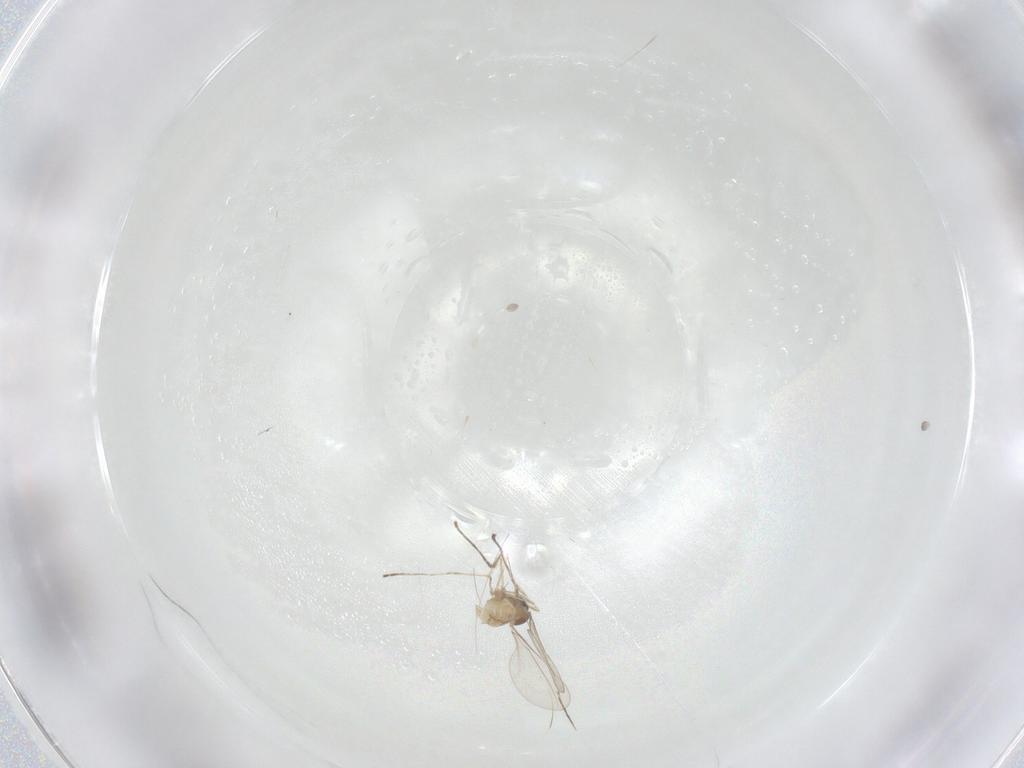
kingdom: Animalia
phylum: Arthropoda
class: Insecta
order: Diptera
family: Cecidomyiidae
